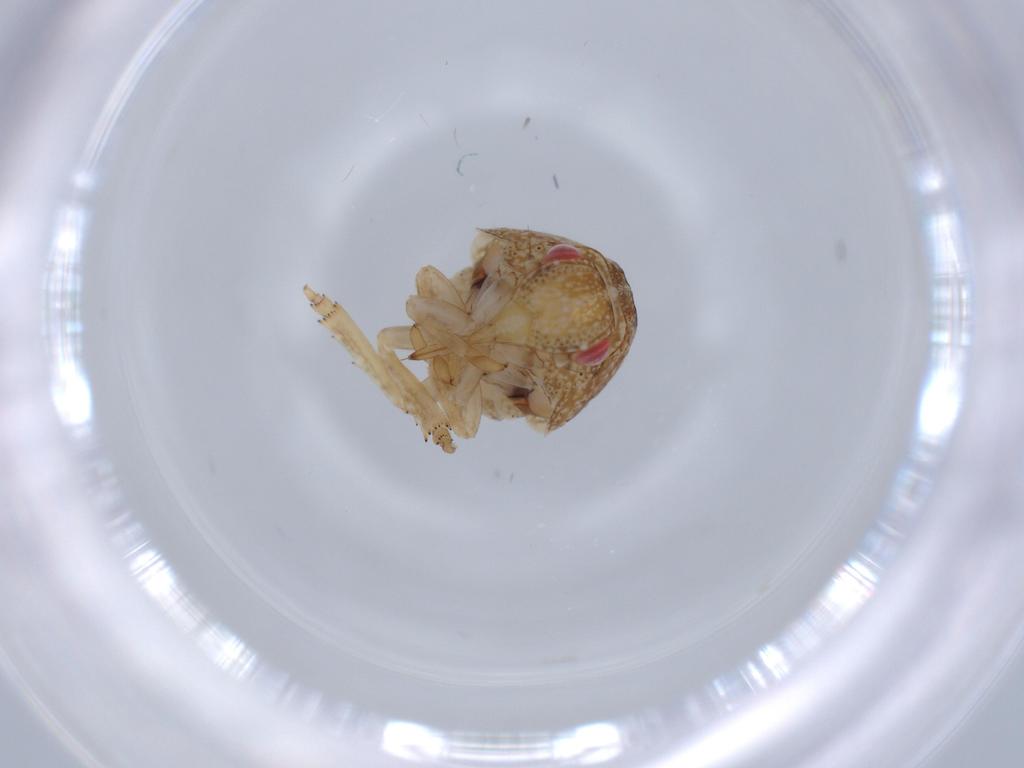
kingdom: Animalia
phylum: Arthropoda
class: Insecta
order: Hemiptera
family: Acanaloniidae
